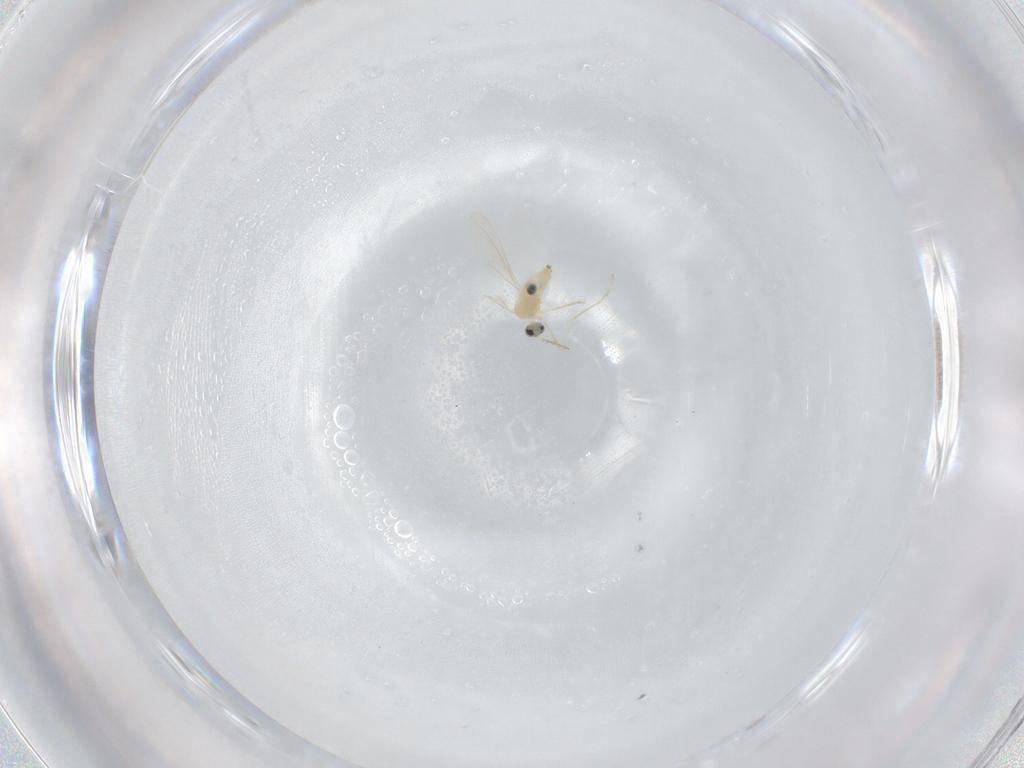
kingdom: Animalia
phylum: Arthropoda
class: Insecta
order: Diptera
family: Cecidomyiidae
